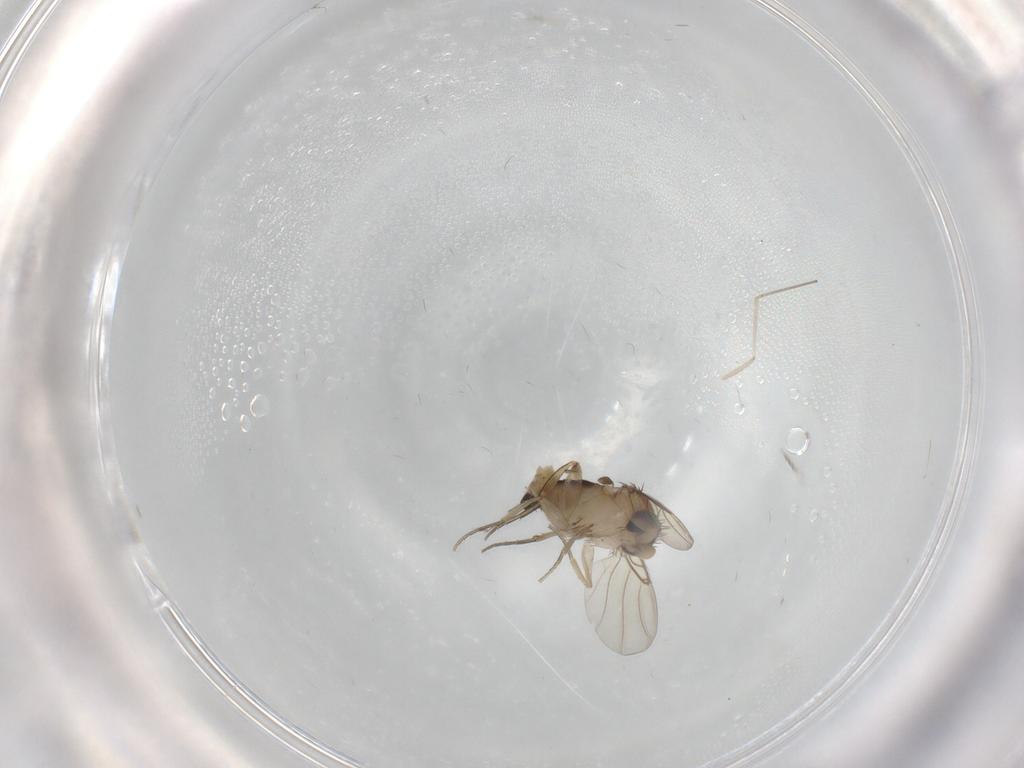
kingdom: Animalia
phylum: Arthropoda
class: Insecta
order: Diptera
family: Phoridae
